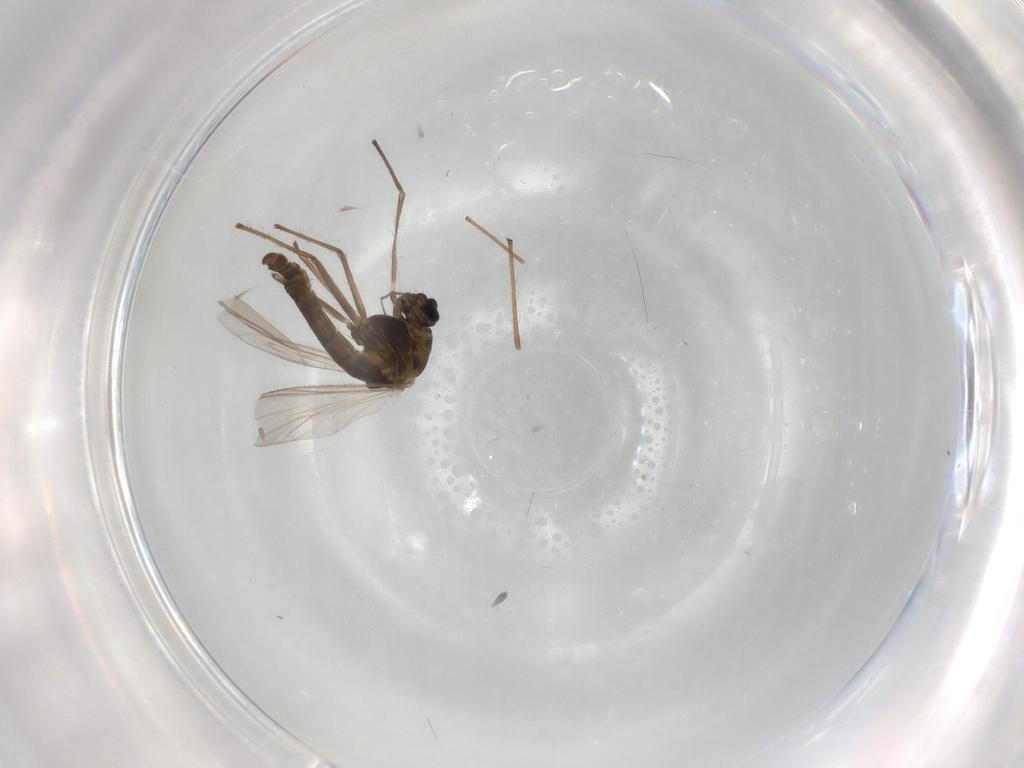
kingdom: Animalia
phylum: Arthropoda
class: Insecta
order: Diptera
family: Chironomidae
